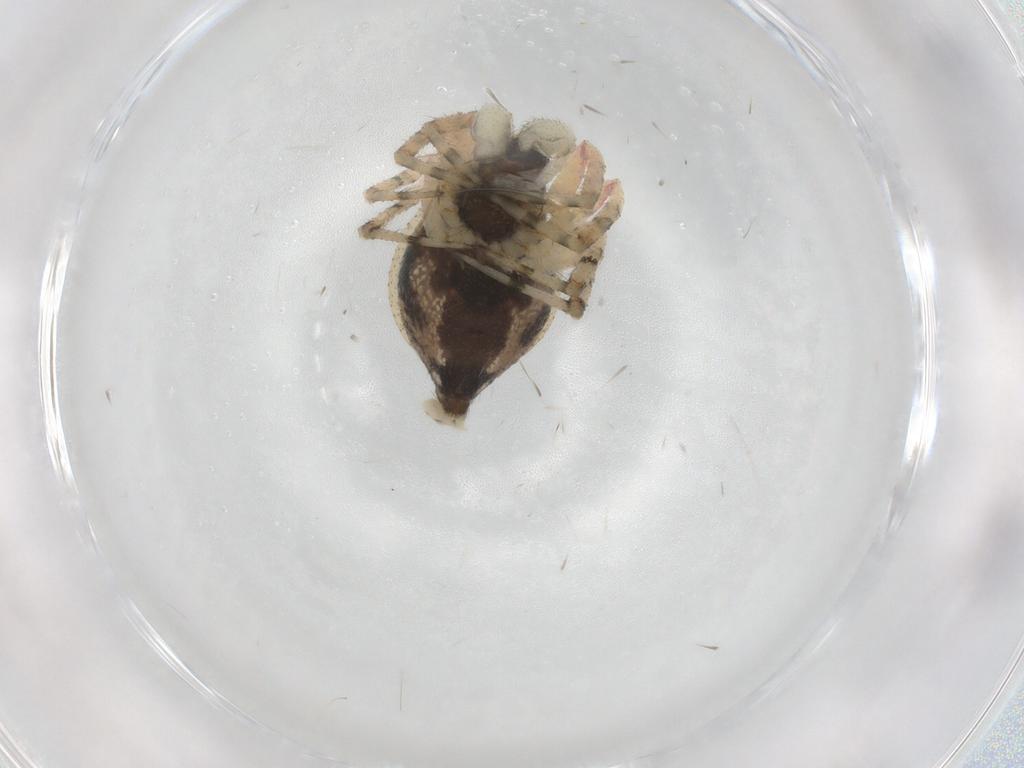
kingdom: Animalia
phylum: Arthropoda
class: Arachnida
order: Araneae
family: Theridiidae
